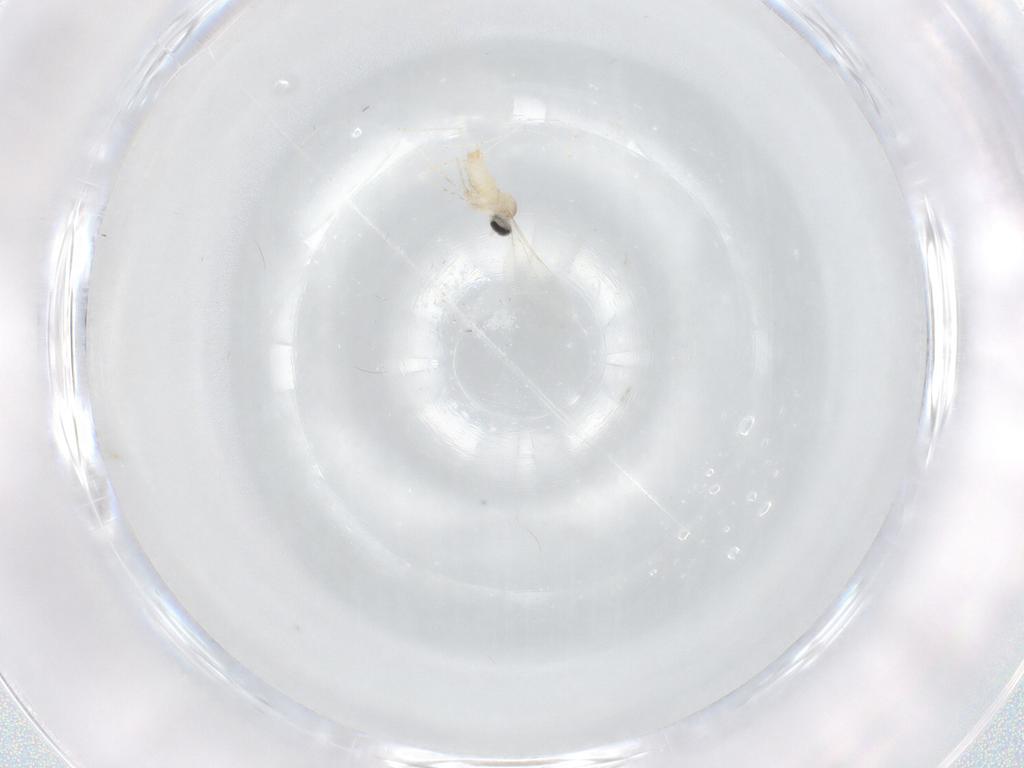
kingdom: Animalia
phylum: Arthropoda
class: Insecta
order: Diptera
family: Cecidomyiidae
